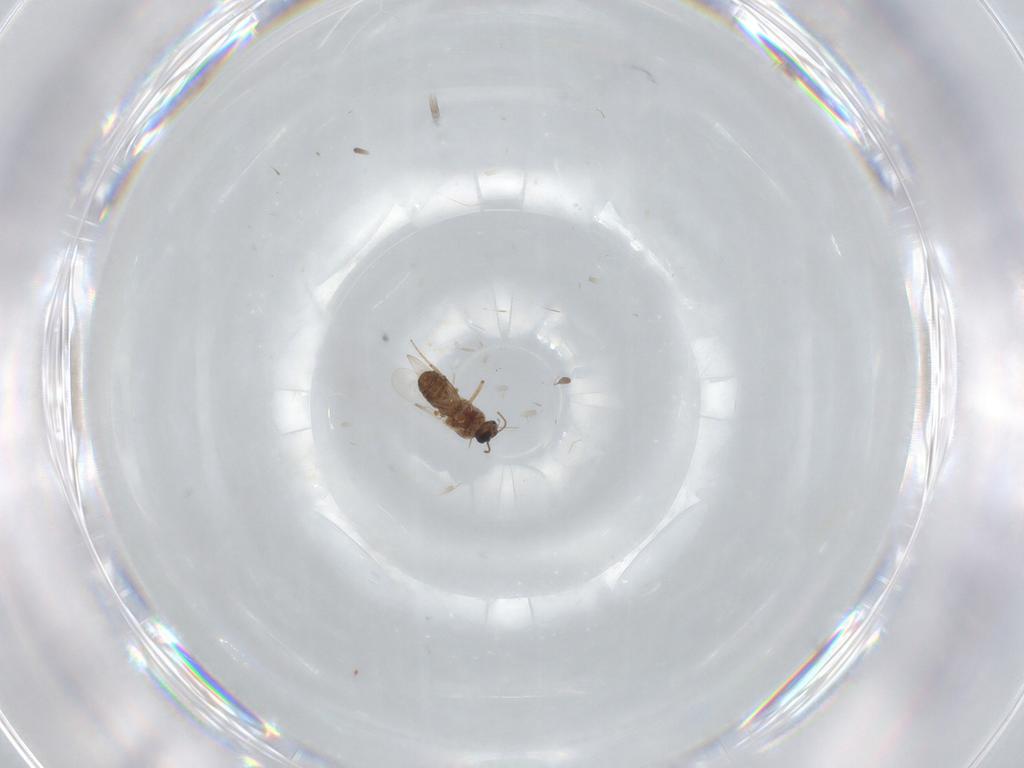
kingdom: Animalia
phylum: Arthropoda
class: Insecta
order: Diptera
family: Ceratopogonidae
